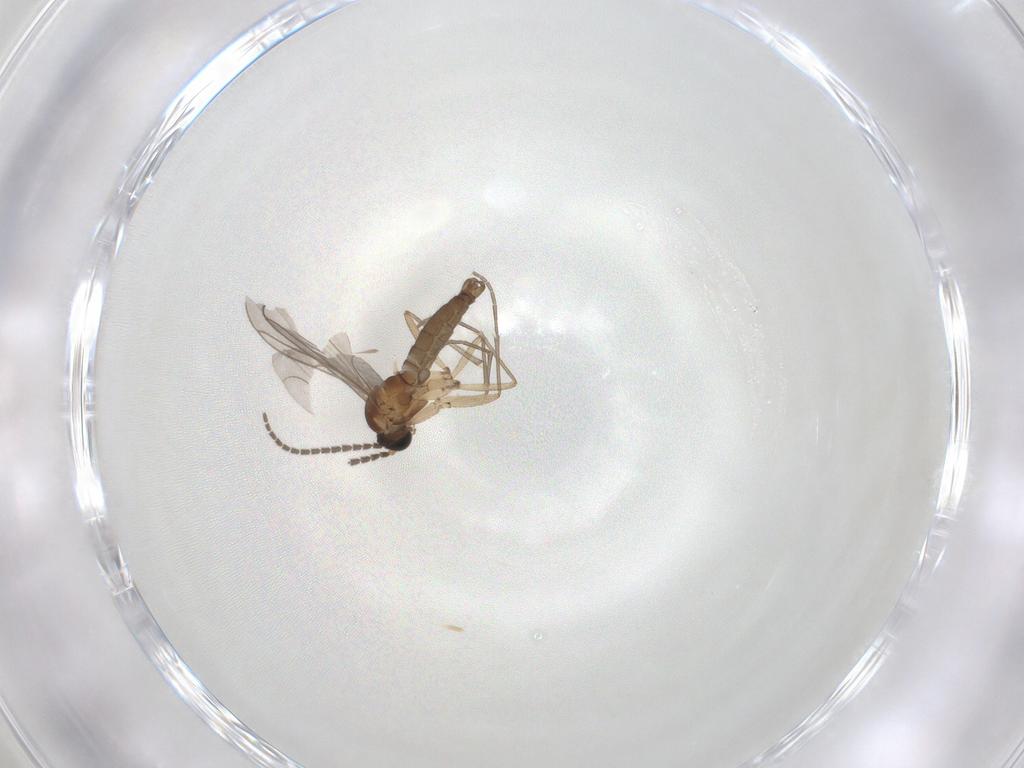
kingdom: Animalia
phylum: Arthropoda
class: Insecta
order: Diptera
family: Sciaridae
